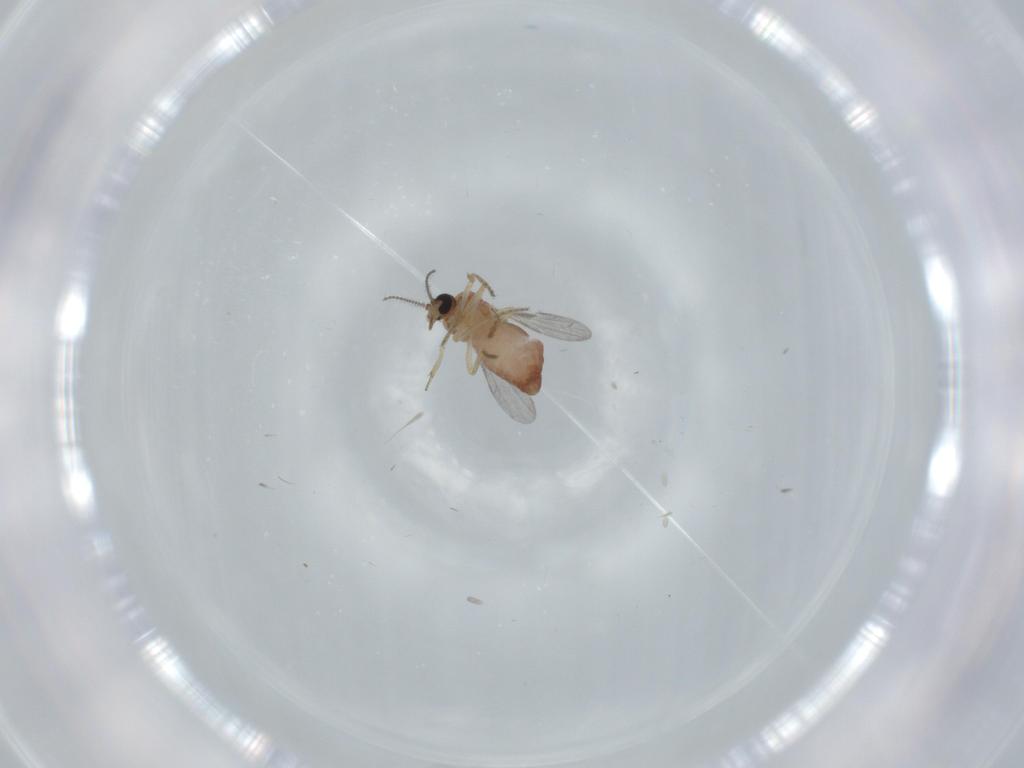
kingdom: Animalia
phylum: Arthropoda
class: Insecta
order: Diptera
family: Ceratopogonidae
